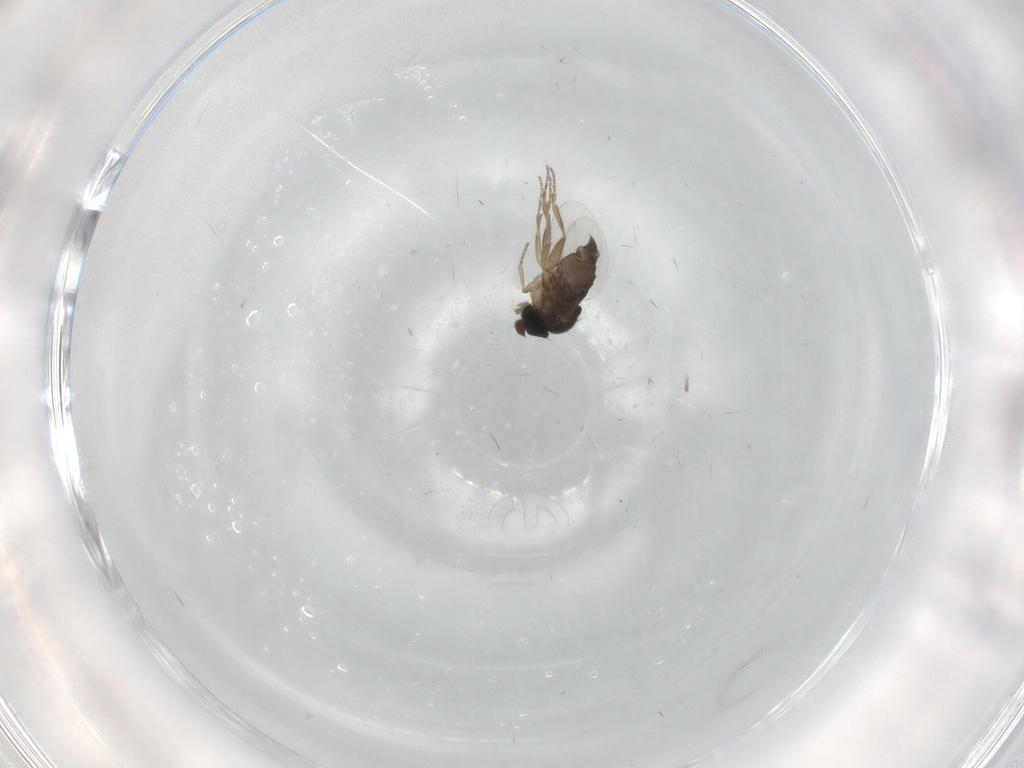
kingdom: Animalia
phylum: Arthropoda
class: Insecta
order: Diptera
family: Phoridae
